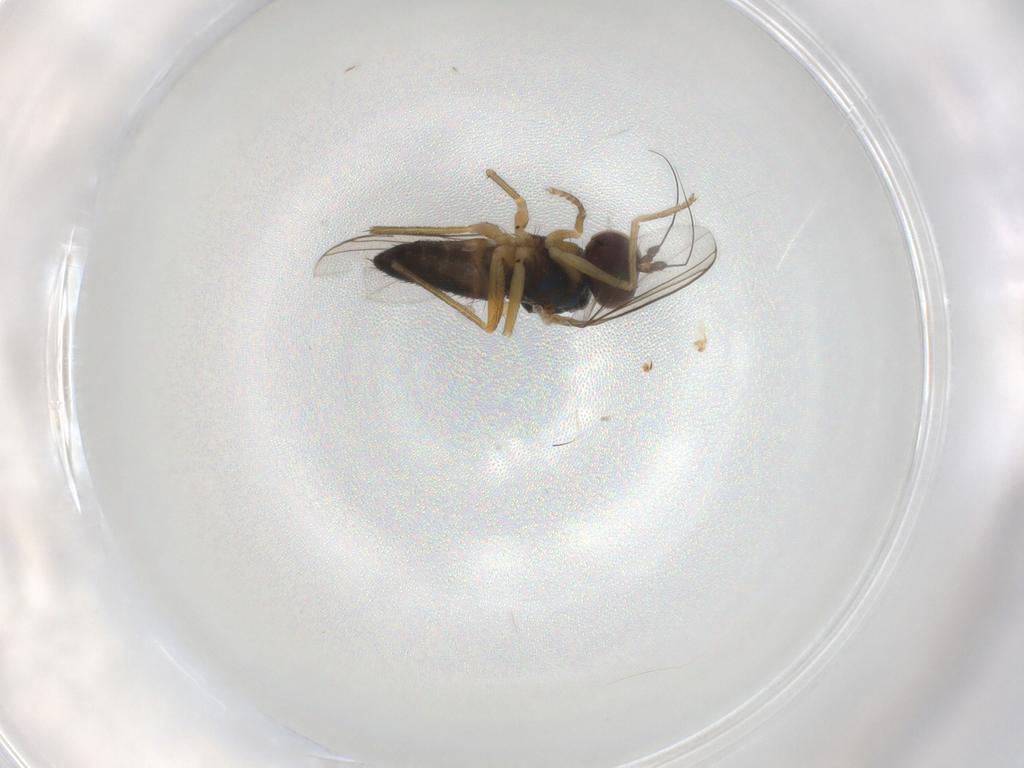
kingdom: Animalia
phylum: Arthropoda
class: Insecta
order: Diptera
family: Dolichopodidae
